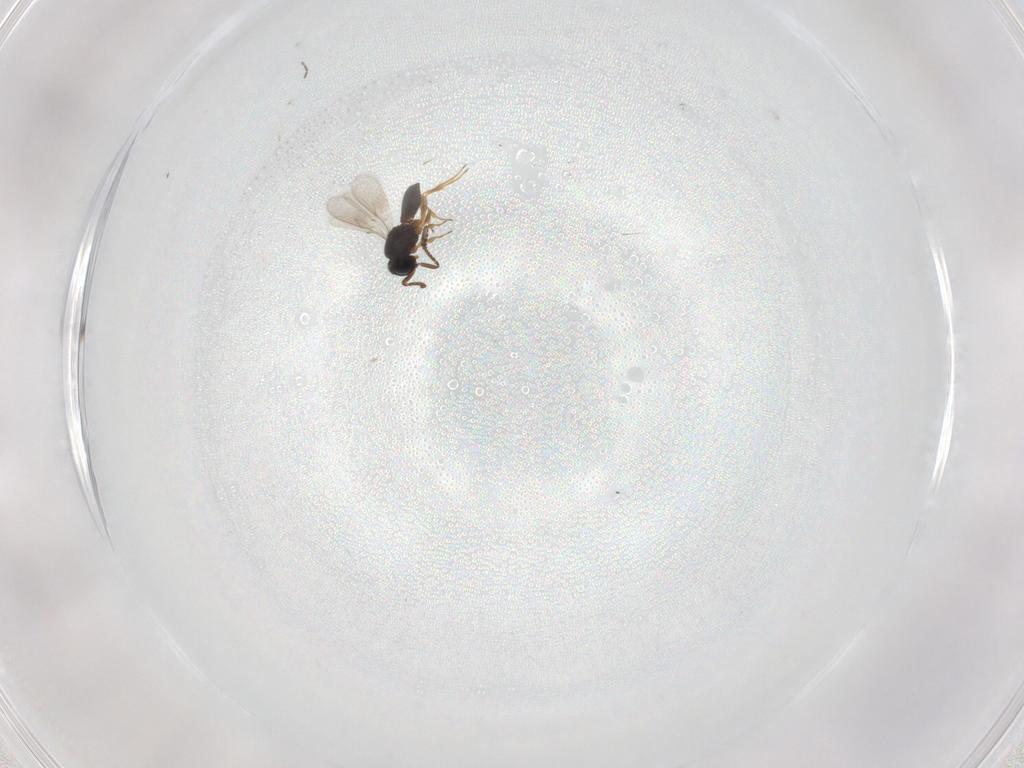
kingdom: Animalia
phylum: Arthropoda
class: Insecta
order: Hymenoptera
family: Scelionidae
